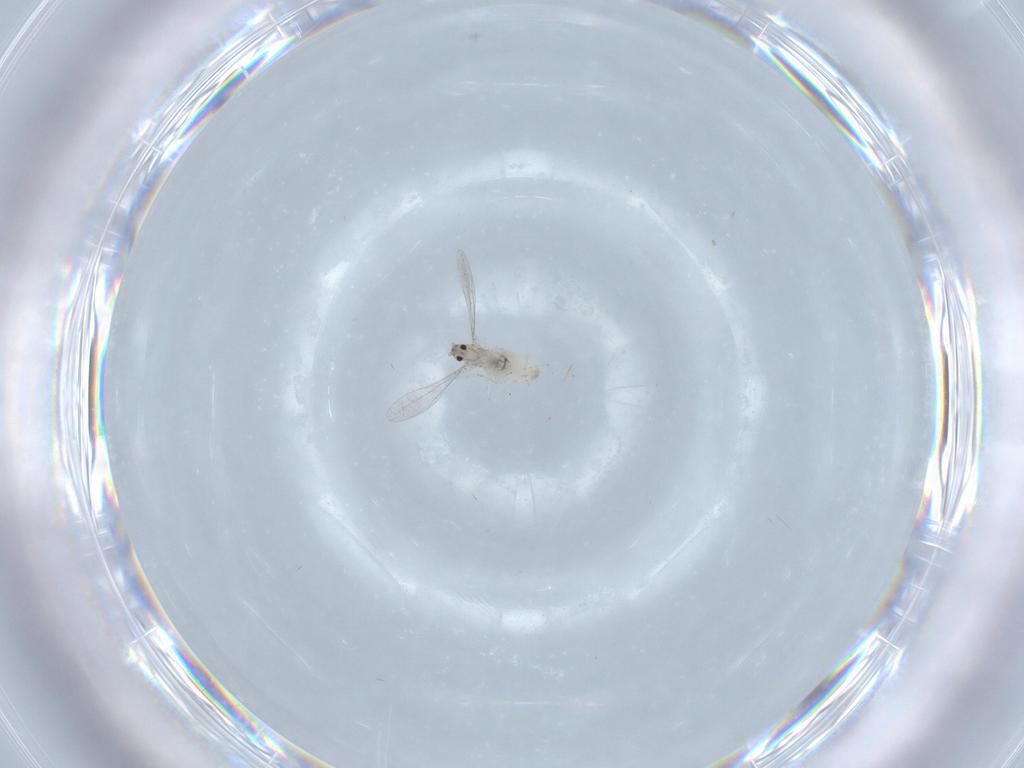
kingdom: Animalia
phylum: Arthropoda
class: Insecta
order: Diptera
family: Cecidomyiidae
